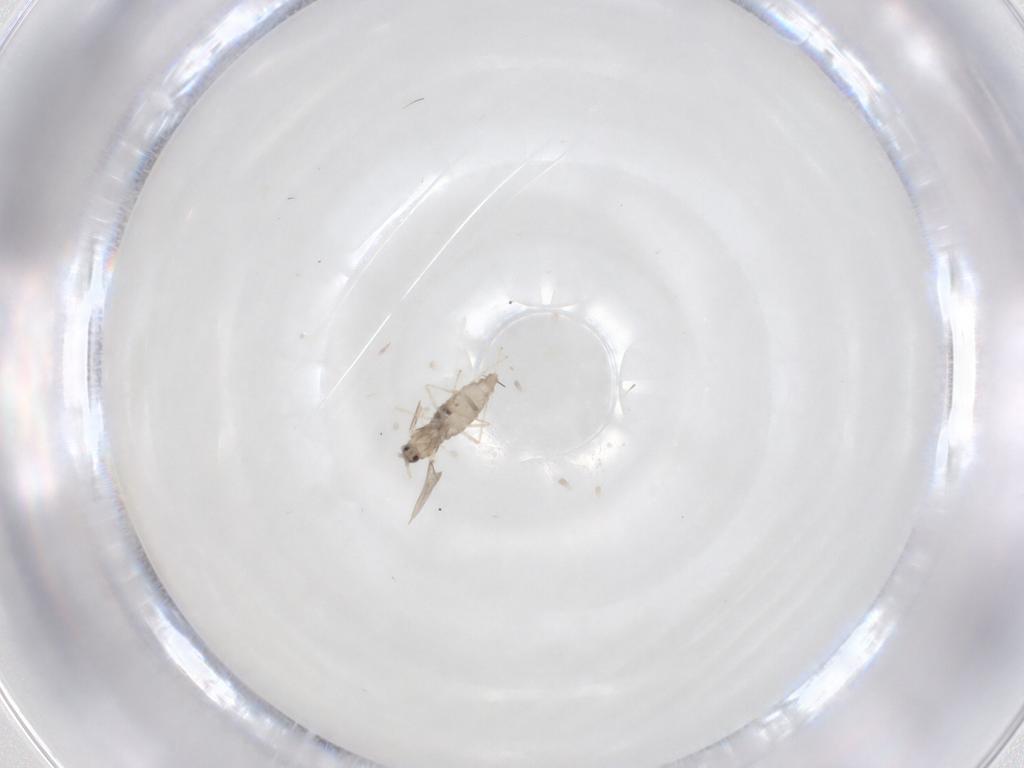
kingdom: Animalia
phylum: Arthropoda
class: Insecta
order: Diptera
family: Cecidomyiidae
